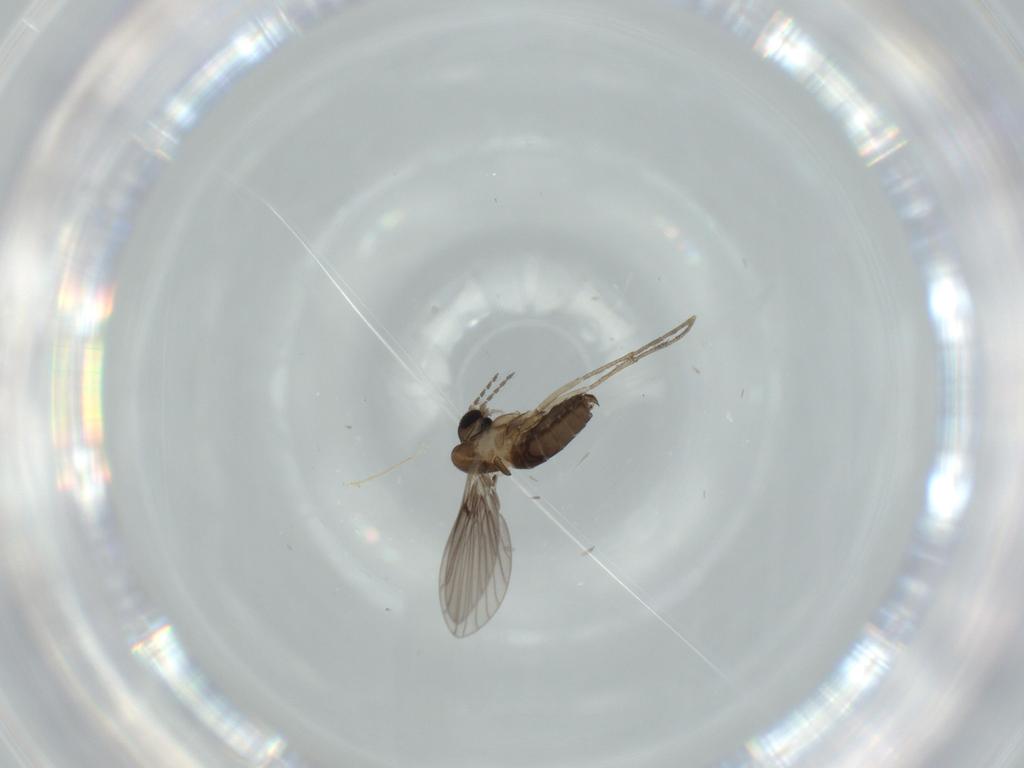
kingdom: Animalia
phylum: Arthropoda
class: Insecta
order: Diptera
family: Psychodidae
